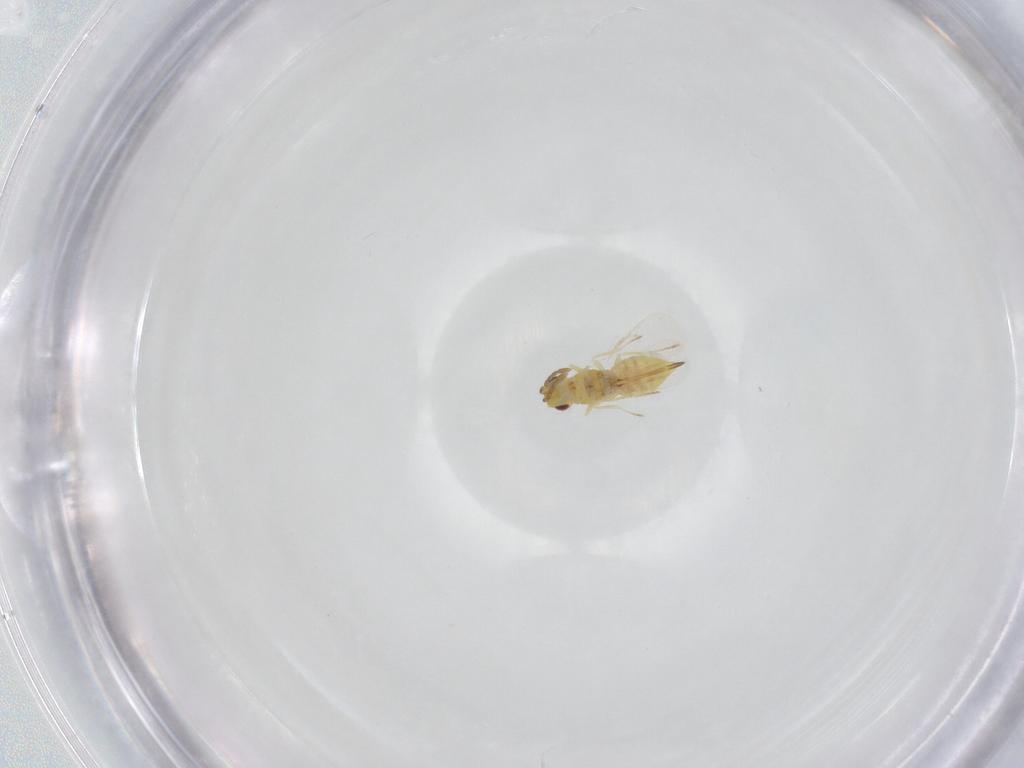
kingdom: Animalia
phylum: Arthropoda
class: Insecta
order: Hymenoptera
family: Eulophidae
